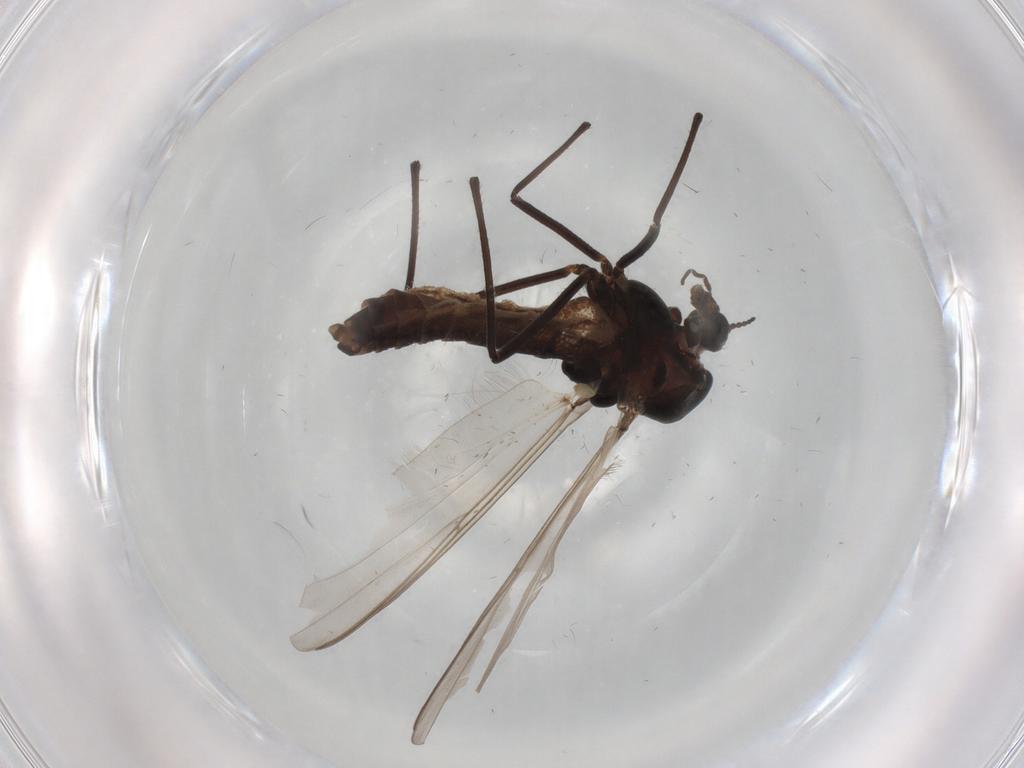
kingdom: Animalia
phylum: Arthropoda
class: Insecta
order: Diptera
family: Chironomidae
